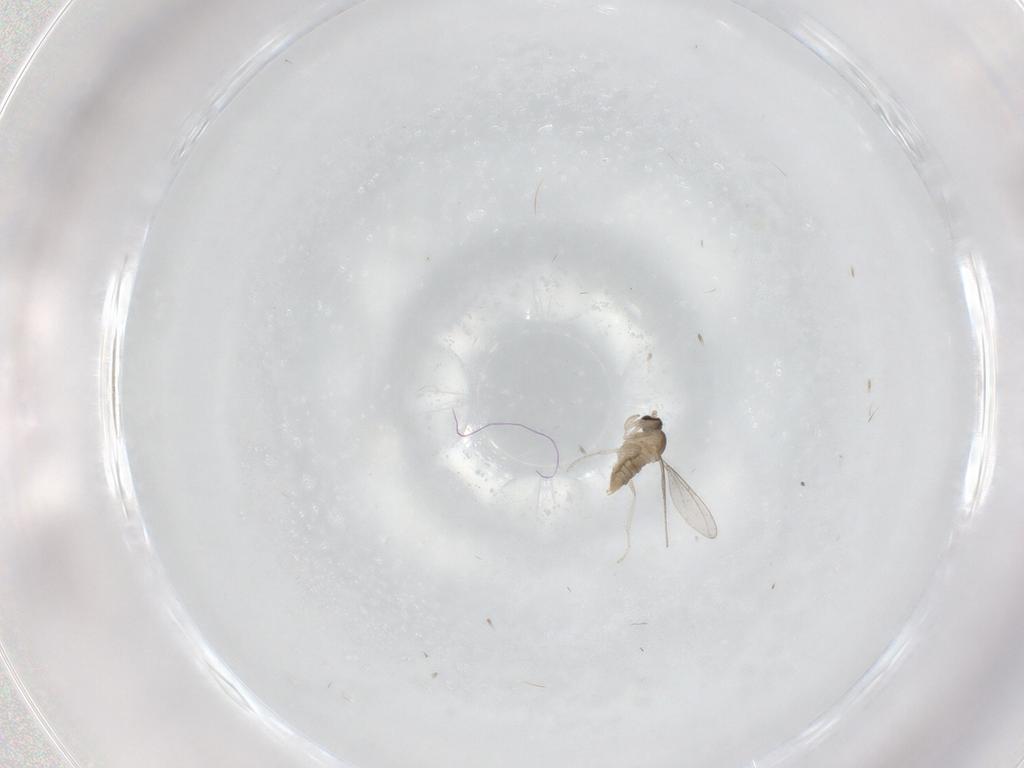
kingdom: Animalia
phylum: Arthropoda
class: Insecta
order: Diptera
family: Cecidomyiidae
